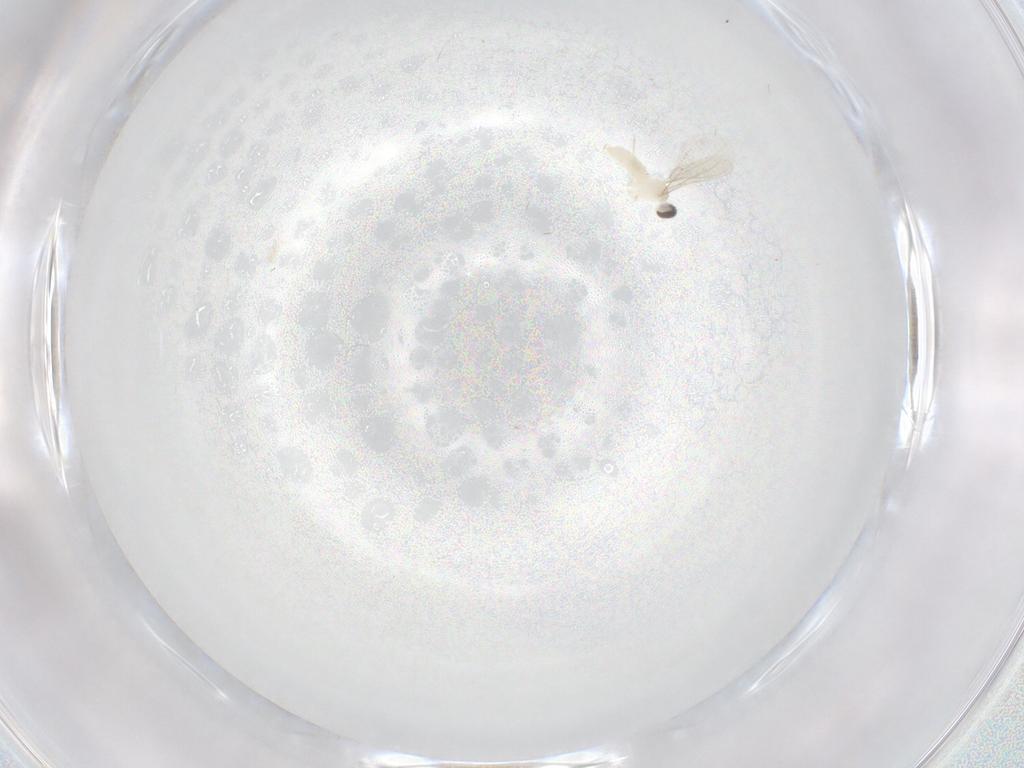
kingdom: Animalia
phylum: Arthropoda
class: Insecta
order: Diptera
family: Cecidomyiidae
